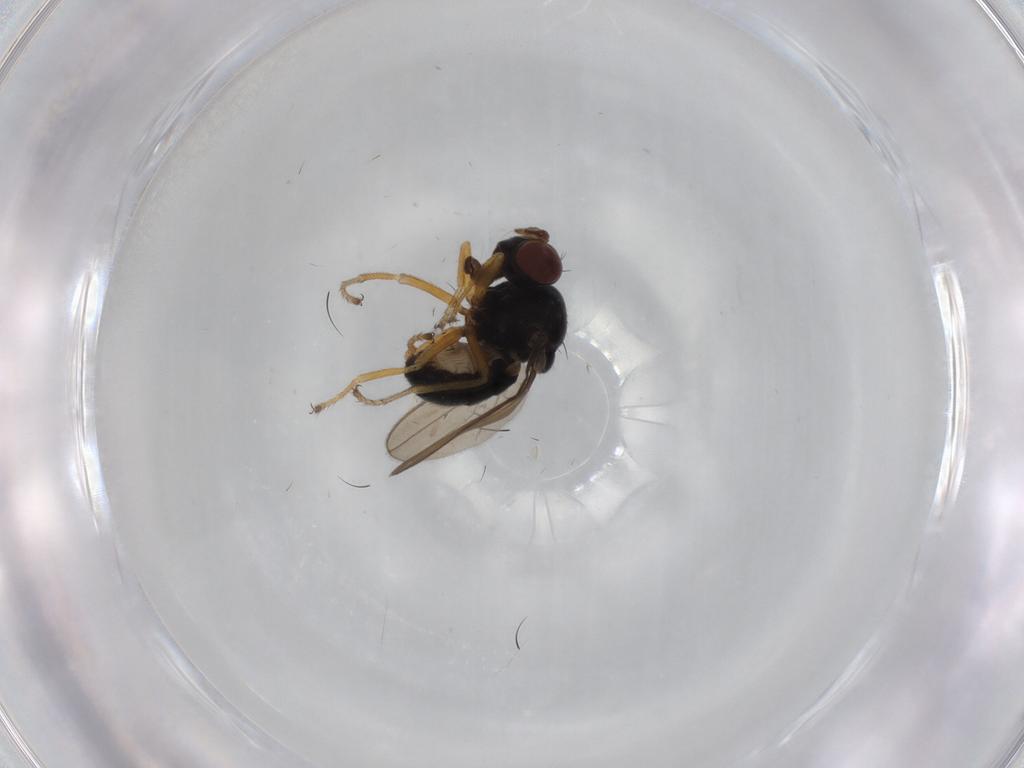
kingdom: Animalia
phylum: Arthropoda
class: Insecta
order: Diptera
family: Ephydridae
